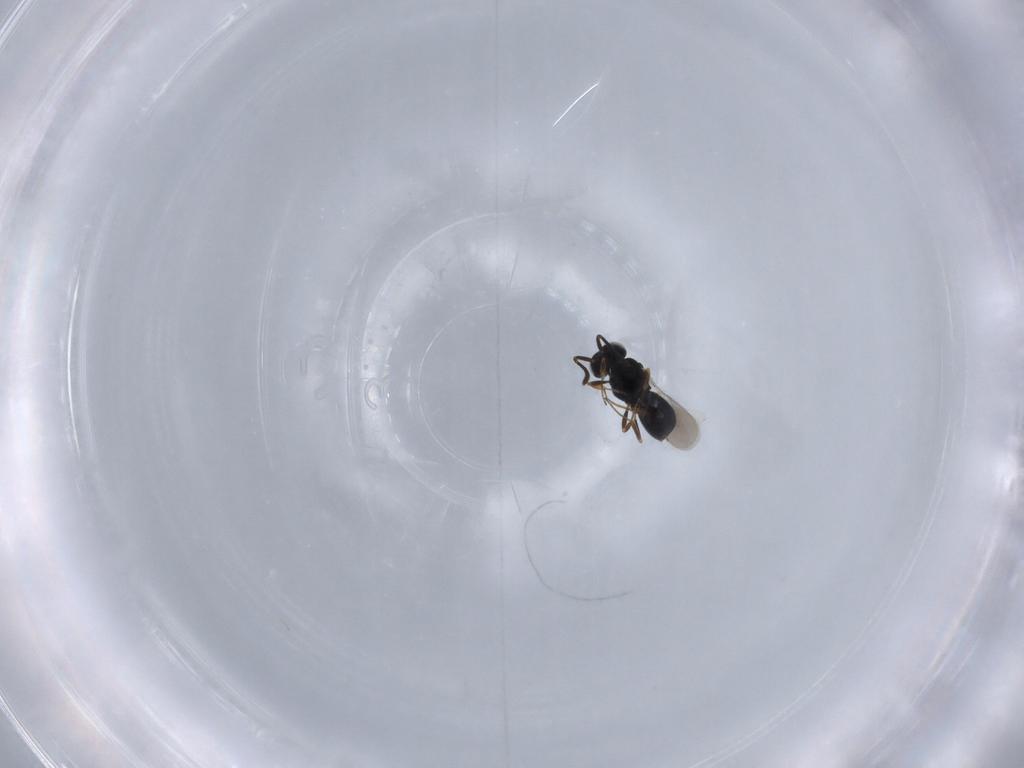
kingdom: Animalia
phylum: Arthropoda
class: Insecta
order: Hymenoptera
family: Scelionidae
